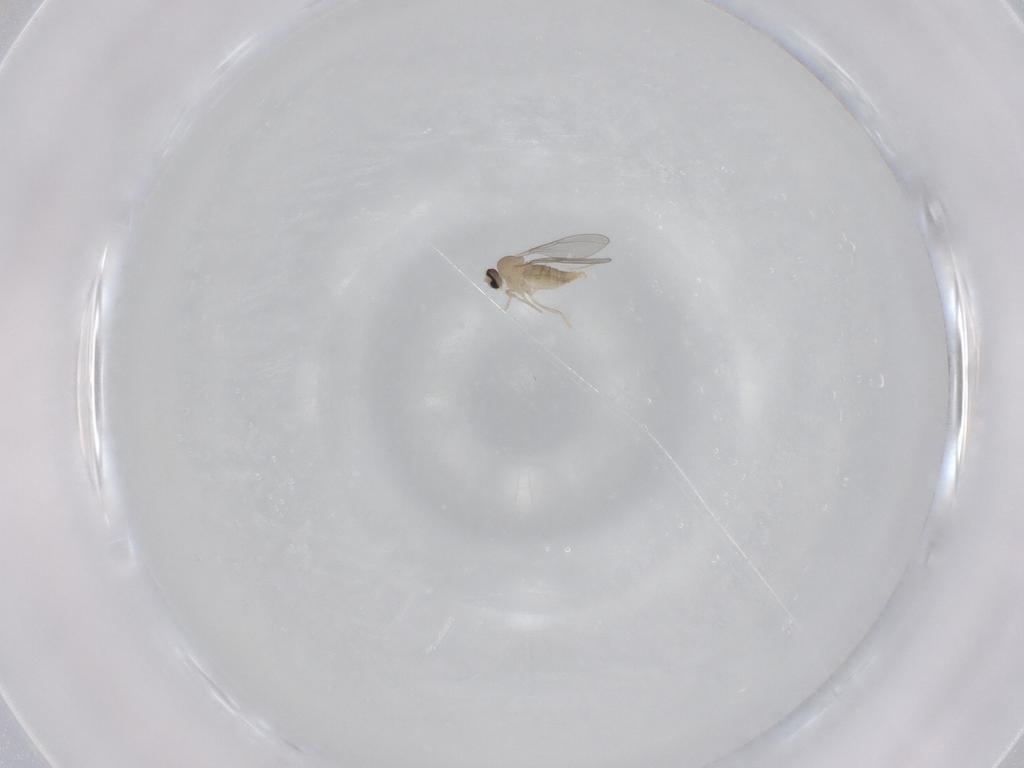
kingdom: Animalia
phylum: Arthropoda
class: Insecta
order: Diptera
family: Cecidomyiidae
